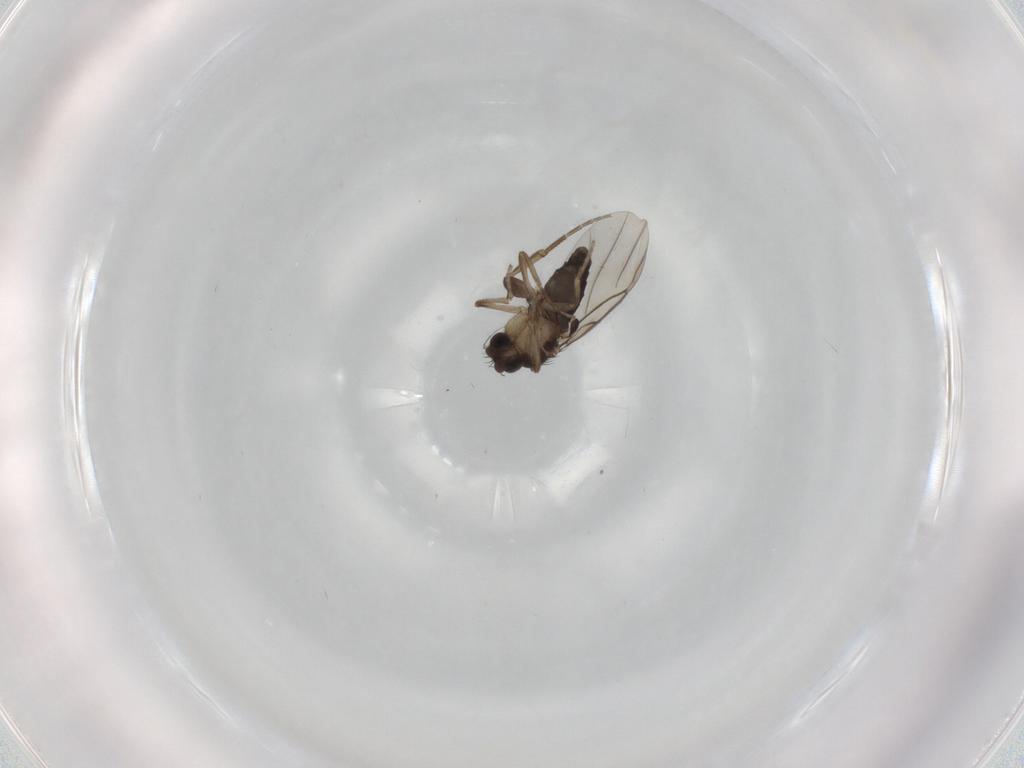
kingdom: Animalia
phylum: Arthropoda
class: Insecta
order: Diptera
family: Phoridae
